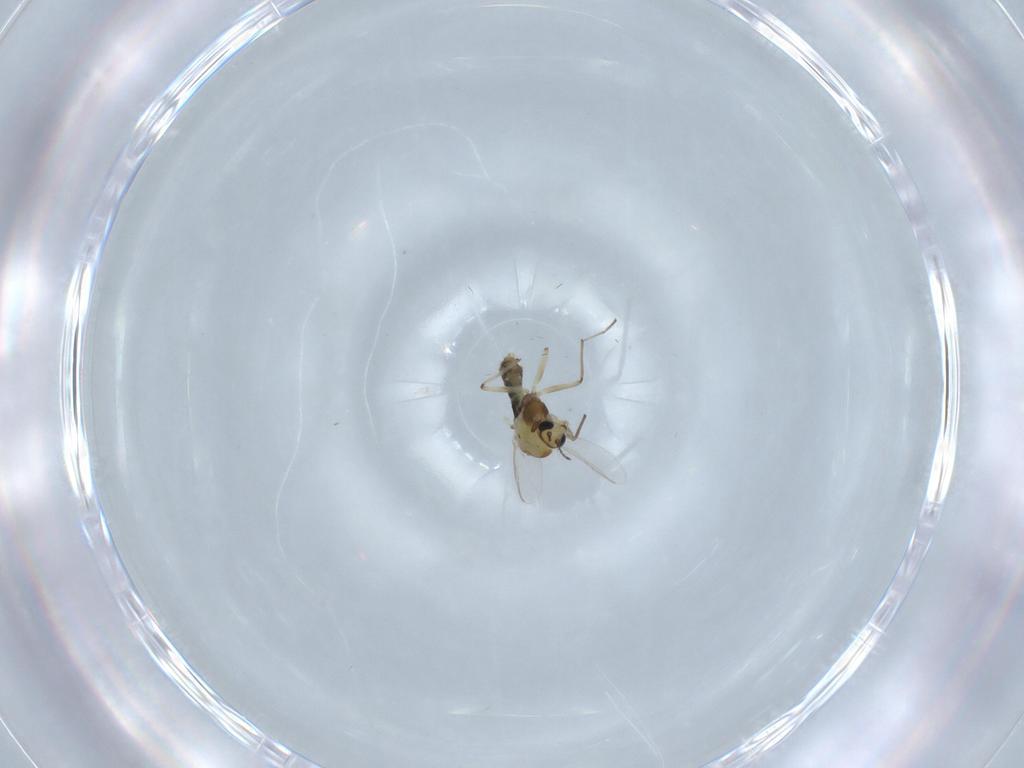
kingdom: Animalia
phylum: Arthropoda
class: Insecta
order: Diptera
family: Chironomidae
